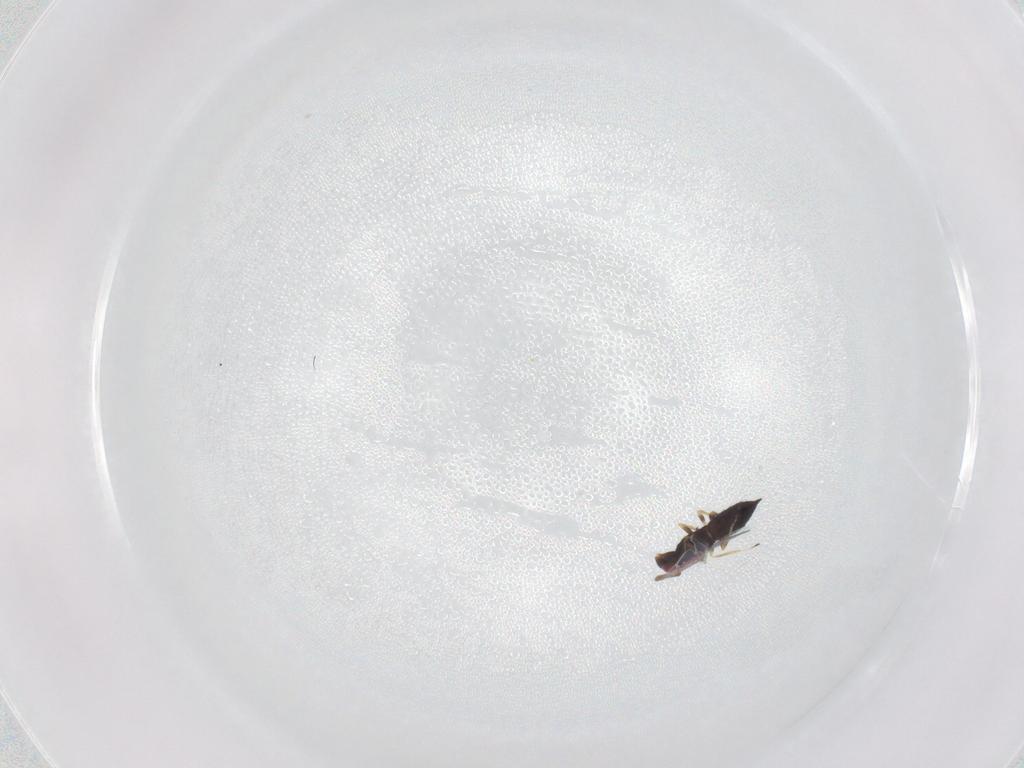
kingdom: Animalia
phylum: Arthropoda
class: Insecta
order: Hymenoptera
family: Eulophidae
